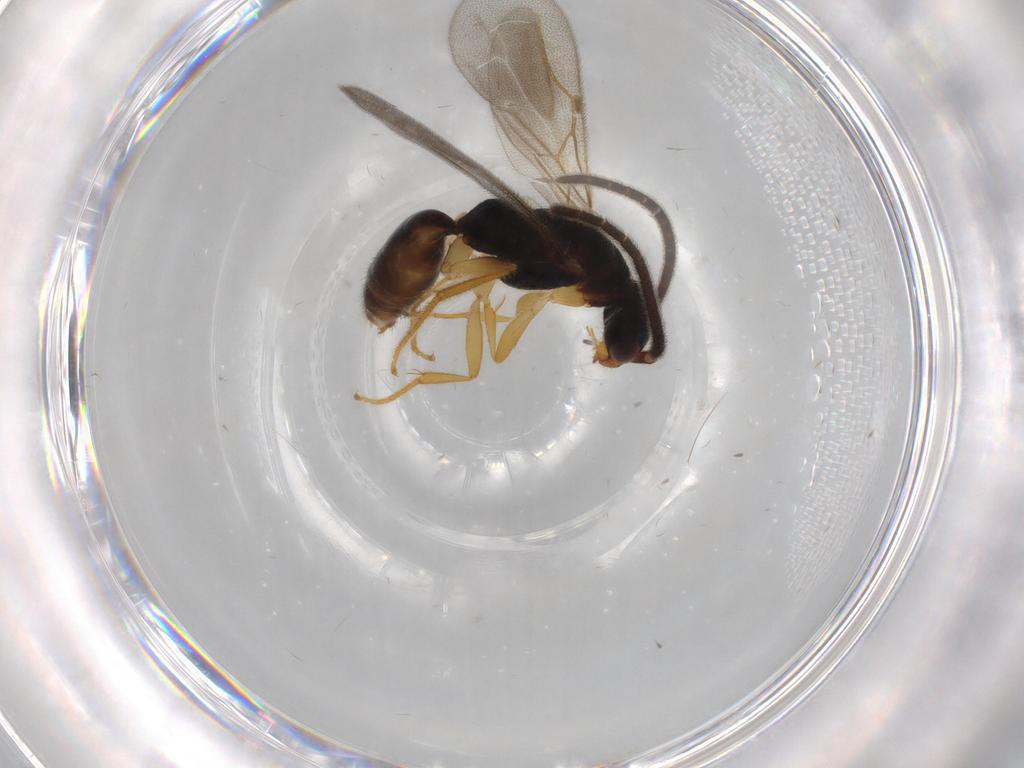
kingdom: Animalia
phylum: Arthropoda
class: Insecta
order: Hymenoptera
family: Bethylidae
